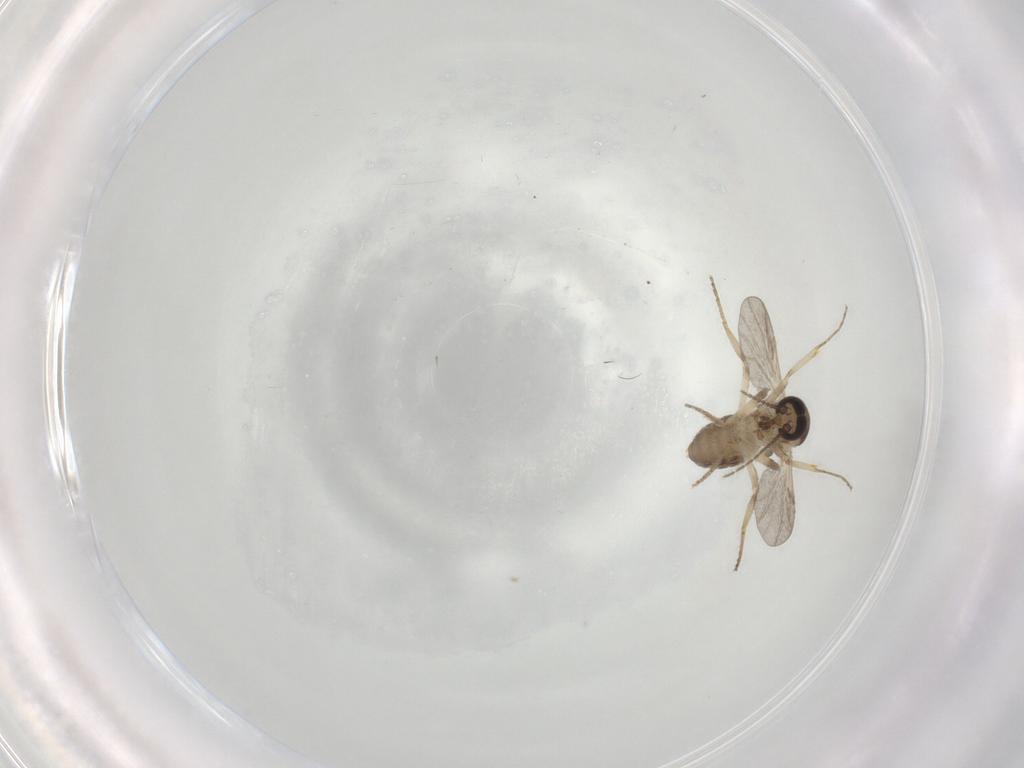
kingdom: Animalia
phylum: Arthropoda
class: Insecta
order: Diptera
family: Ceratopogonidae
